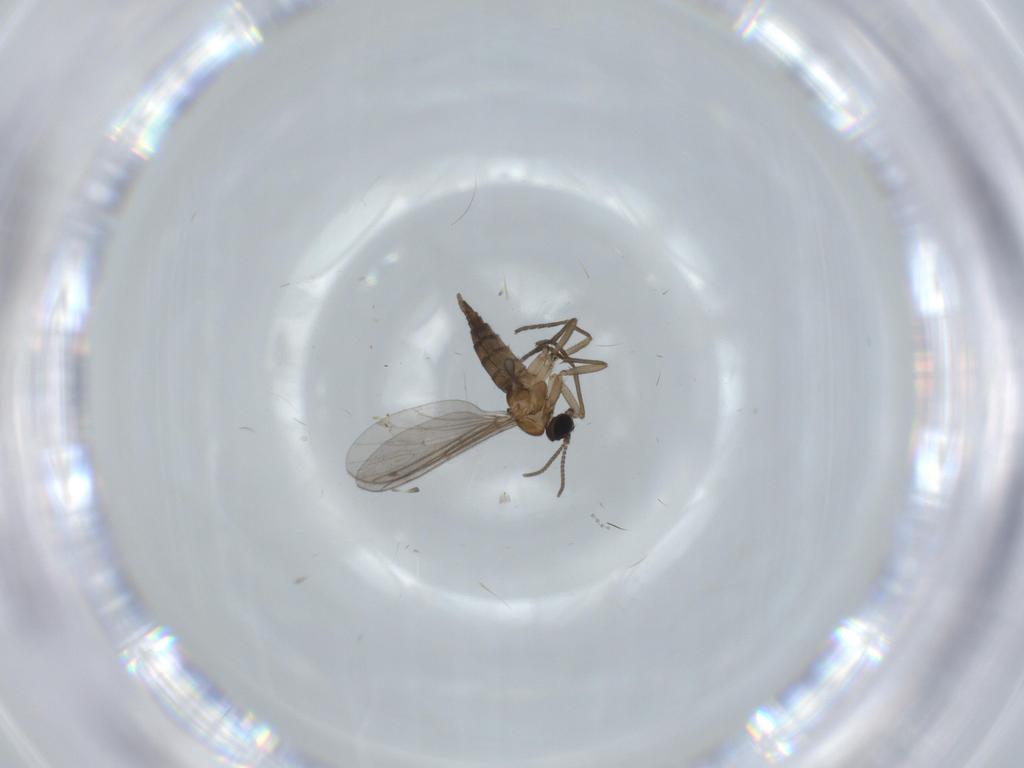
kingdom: Animalia
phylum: Arthropoda
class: Insecta
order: Diptera
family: Sciaridae
